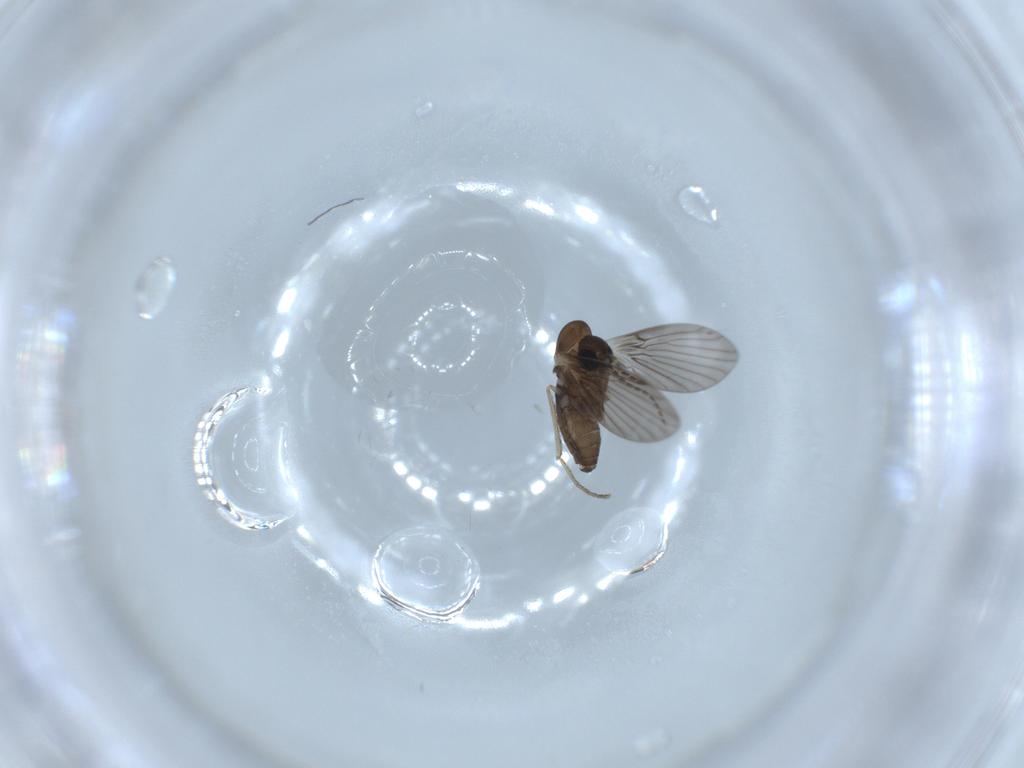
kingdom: Animalia
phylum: Arthropoda
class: Insecta
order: Diptera
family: Psychodidae
